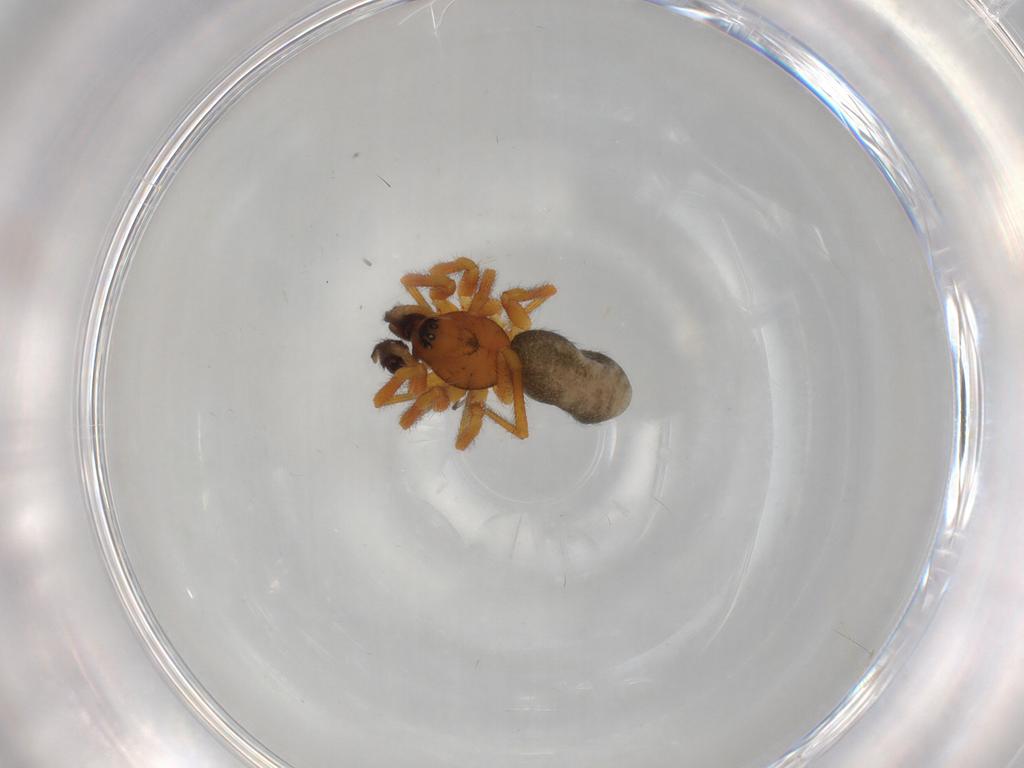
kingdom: Animalia
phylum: Arthropoda
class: Arachnida
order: Araneae
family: Linyphiidae
